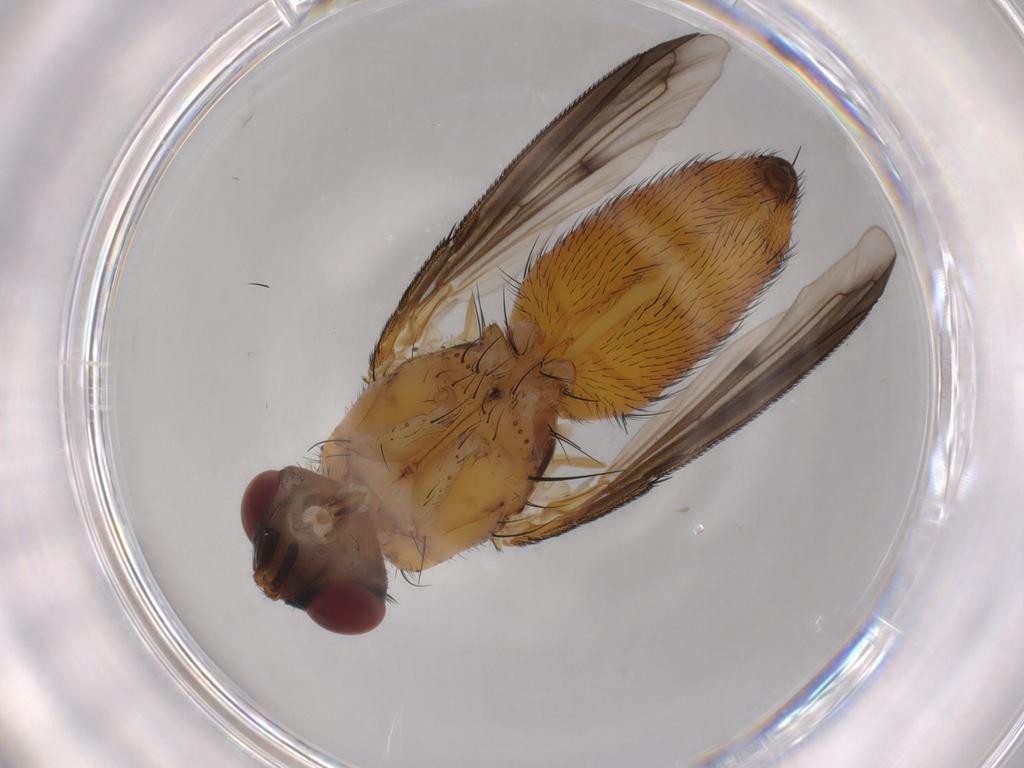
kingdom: Animalia
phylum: Arthropoda
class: Insecta
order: Diptera
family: Tachinidae
